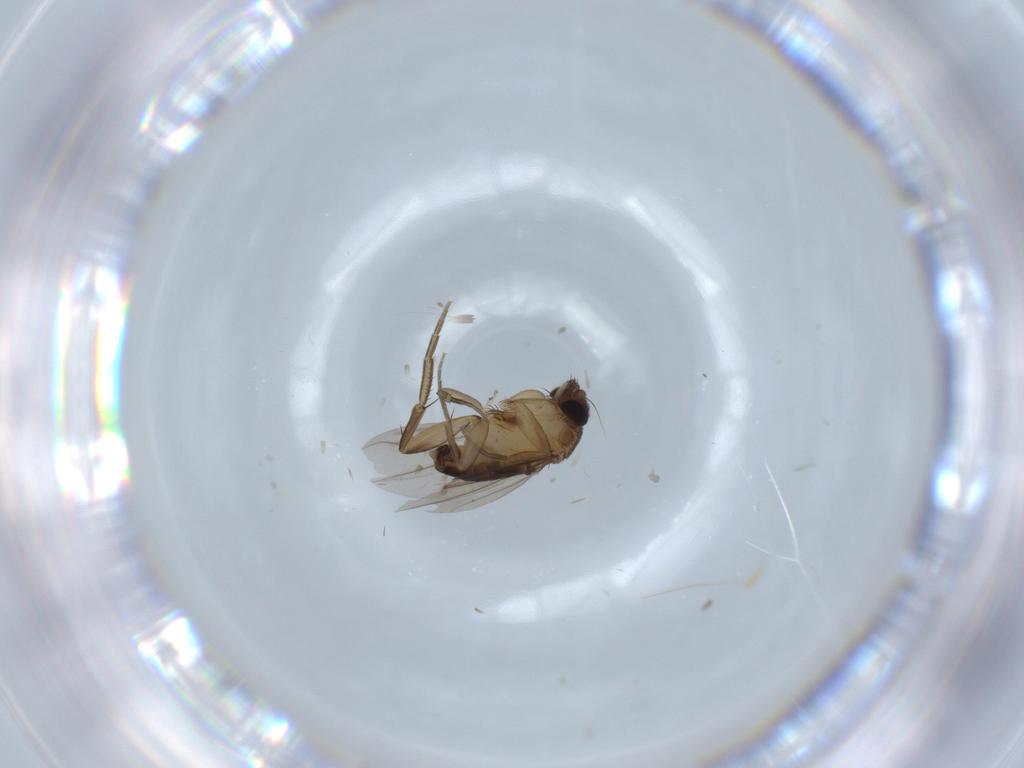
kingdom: Animalia
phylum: Arthropoda
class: Insecta
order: Diptera
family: Phoridae
